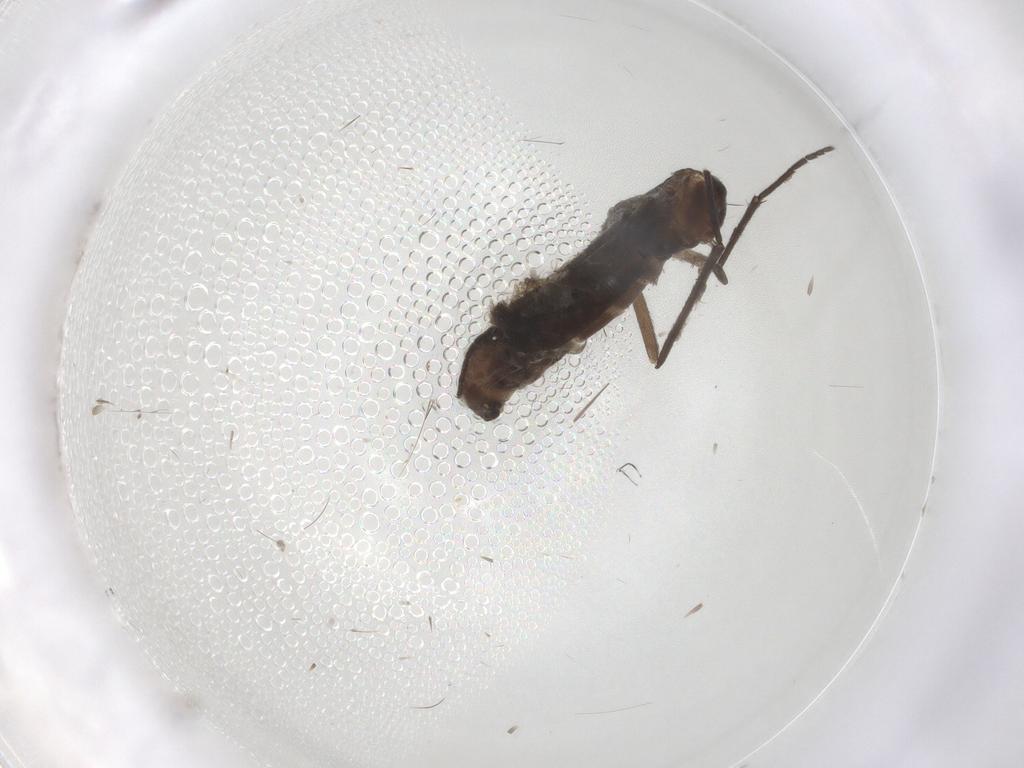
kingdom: Animalia
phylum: Arthropoda
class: Insecta
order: Diptera
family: Sciaridae
